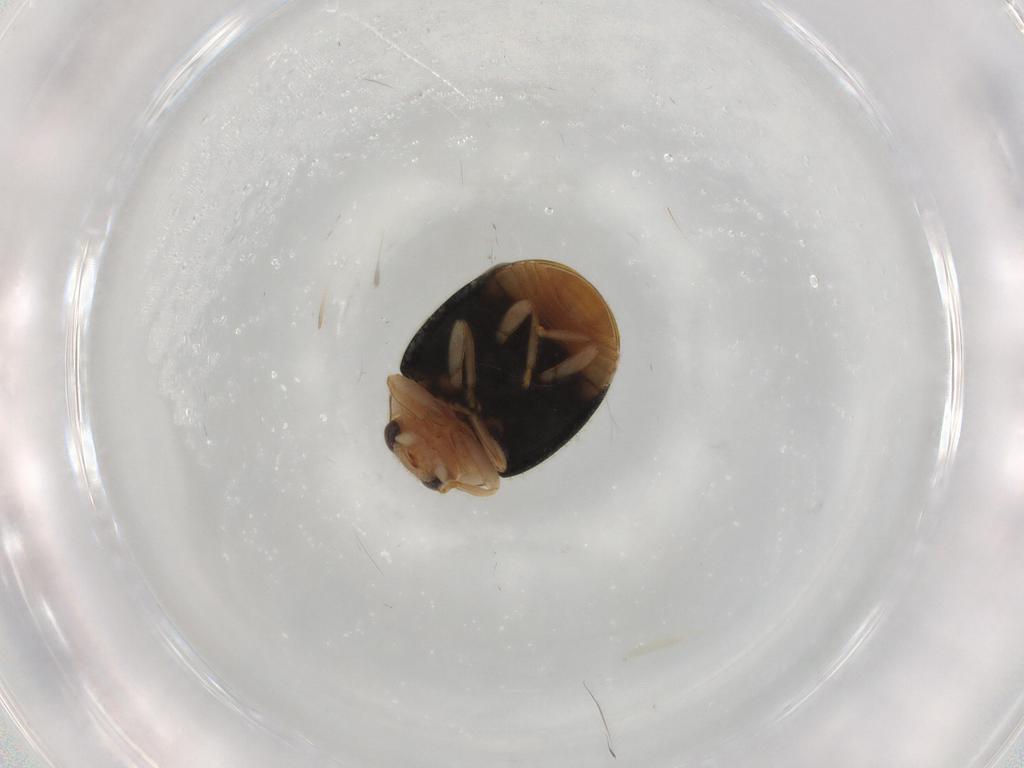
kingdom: Animalia
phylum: Arthropoda
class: Insecta
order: Coleoptera
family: Coccinellidae
